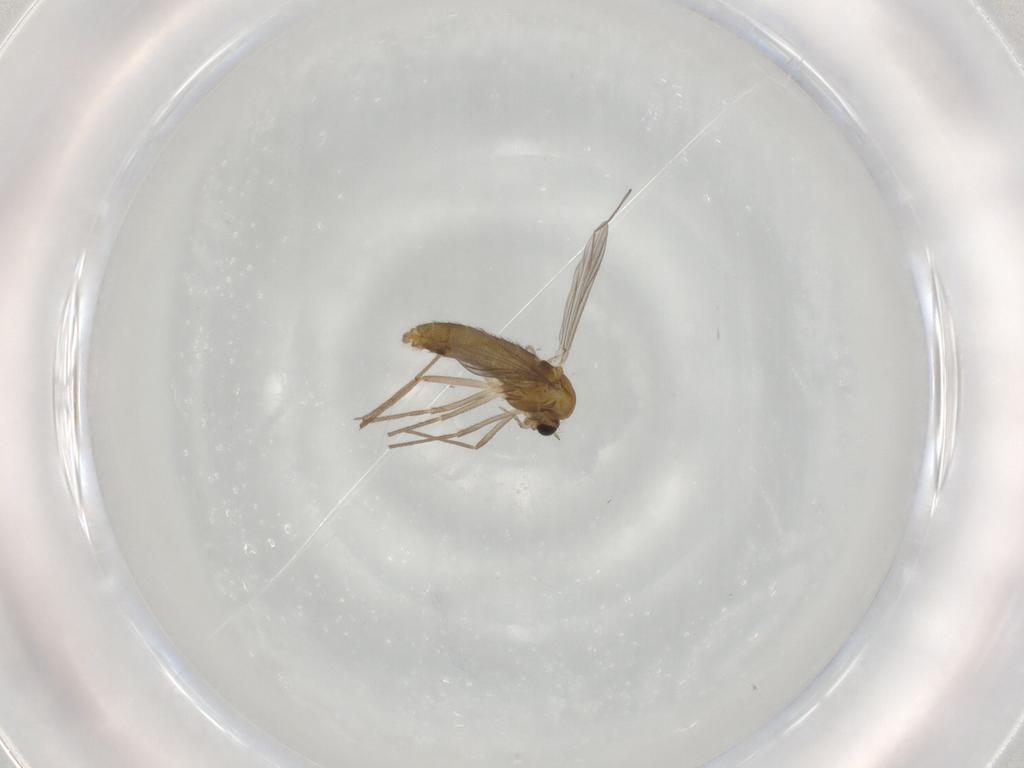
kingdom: Animalia
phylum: Arthropoda
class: Insecta
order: Diptera
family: Chironomidae
